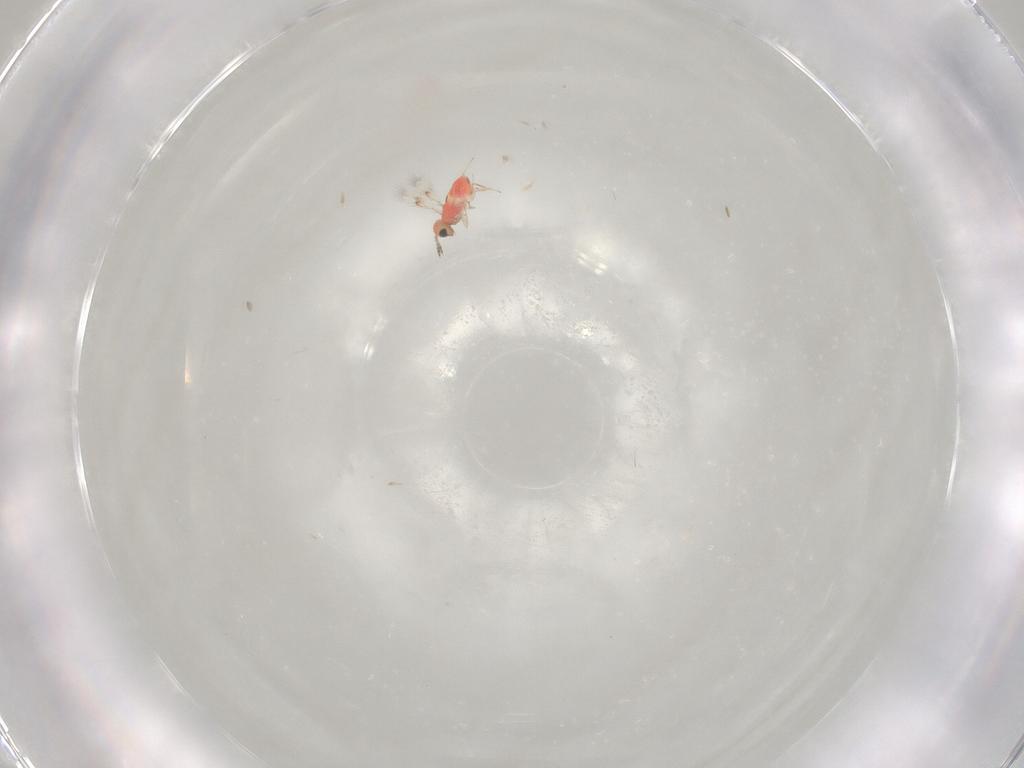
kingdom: Animalia
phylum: Arthropoda
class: Insecta
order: Hymenoptera
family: Trichogrammatidae
